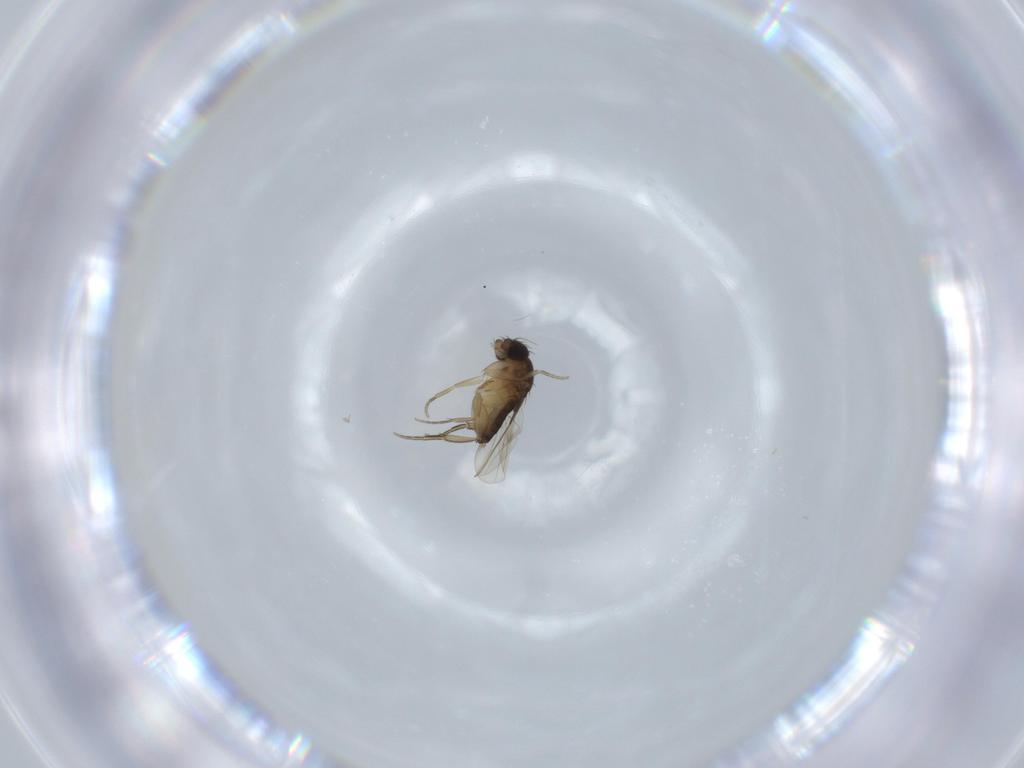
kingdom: Animalia
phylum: Arthropoda
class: Insecta
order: Diptera
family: Phoridae
